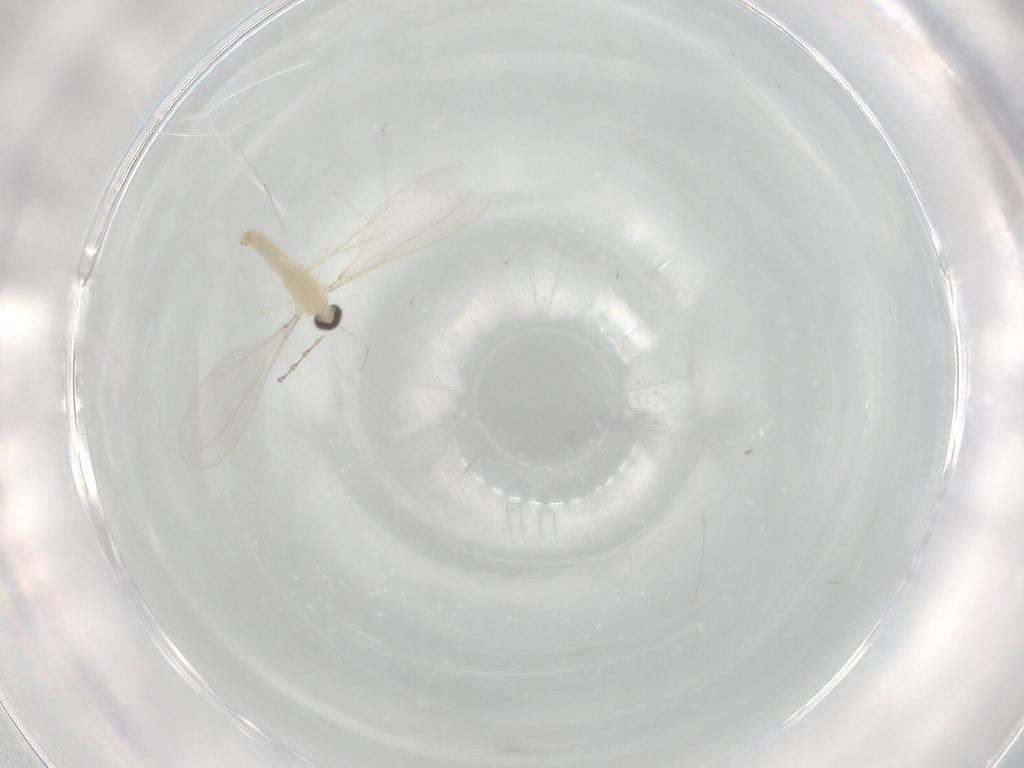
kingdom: Animalia
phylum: Arthropoda
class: Insecta
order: Diptera
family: Cecidomyiidae
